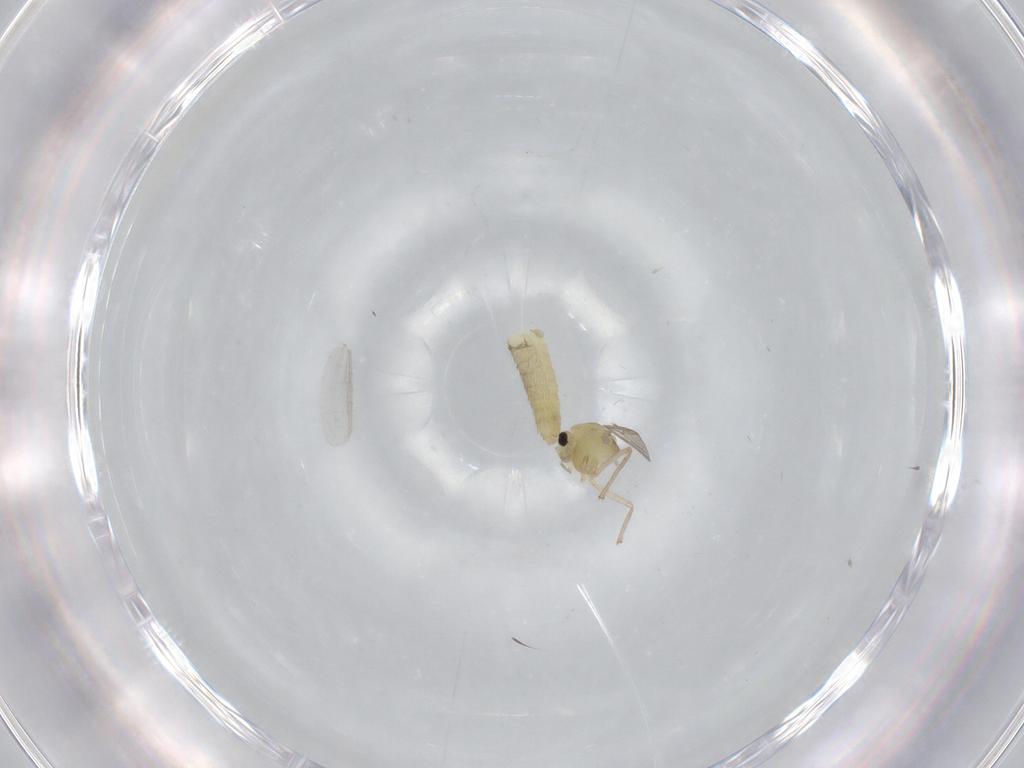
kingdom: Animalia
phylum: Arthropoda
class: Insecta
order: Diptera
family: Chironomidae
